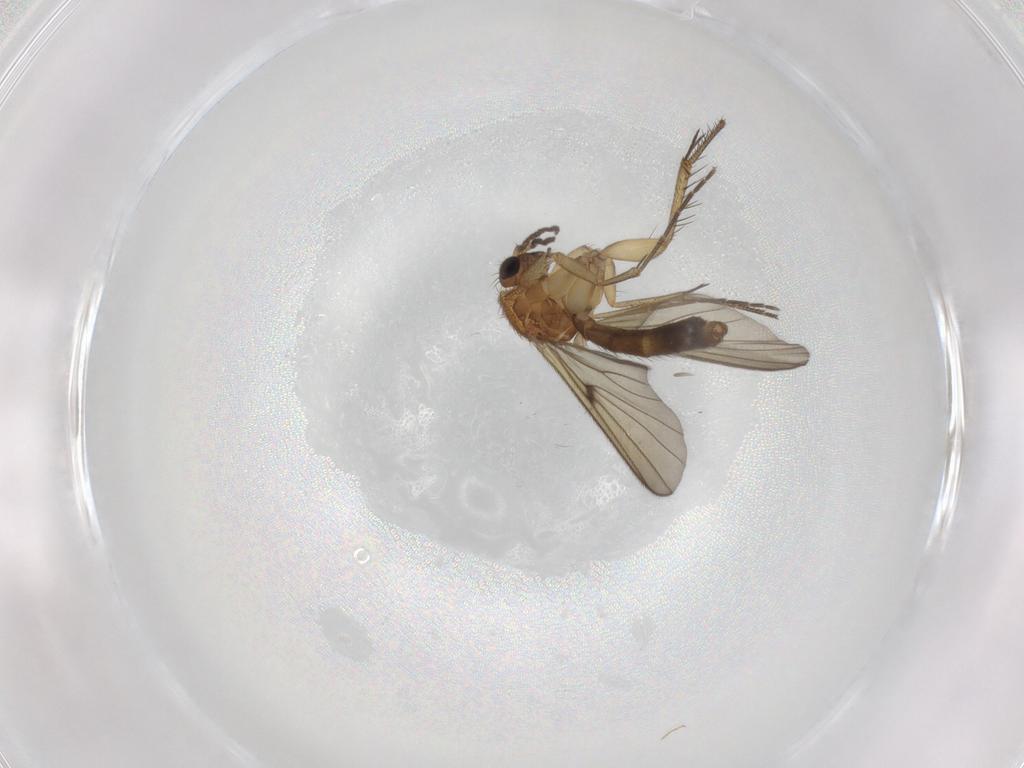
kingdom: Animalia
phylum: Arthropoda
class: Insecta
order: Diptera
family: Mycetophilidae
